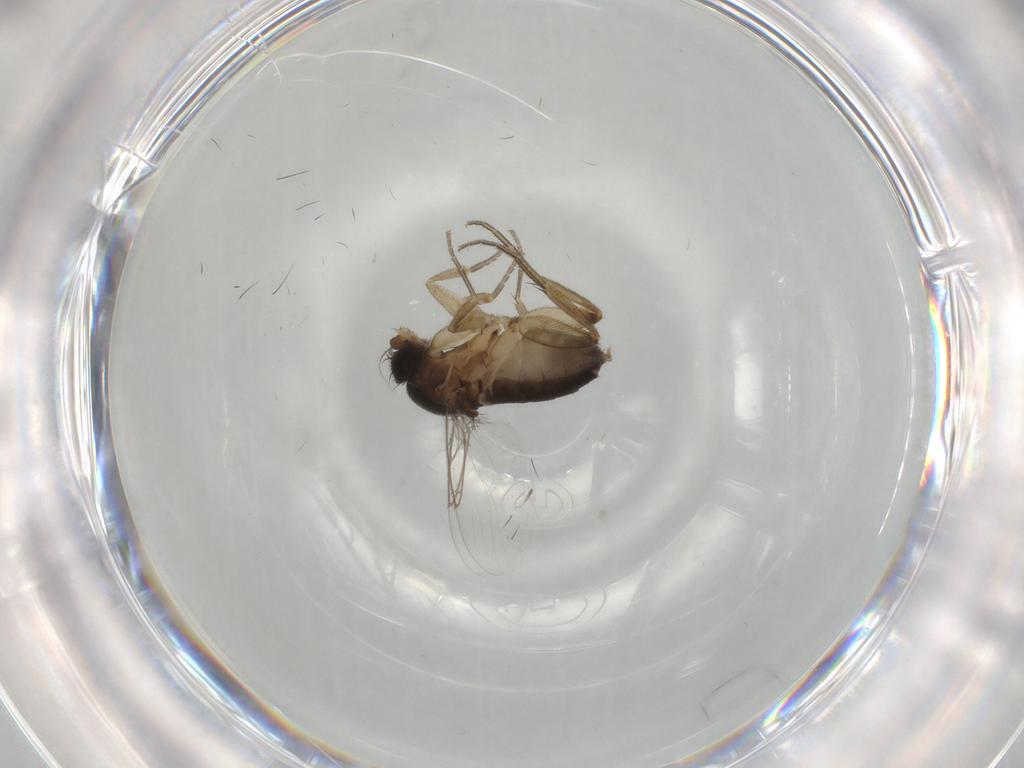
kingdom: Animalia
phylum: Arthropoda
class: Insecta
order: Diptera
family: Phoridae
